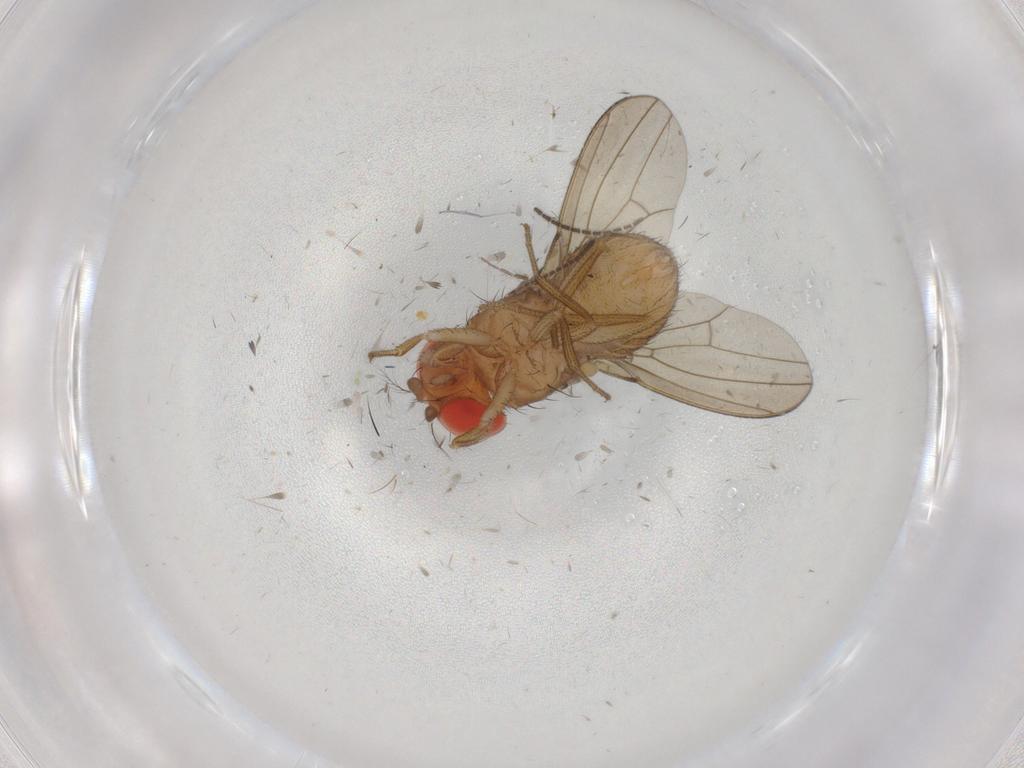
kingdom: Animalia
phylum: Arthropoda
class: Insecta
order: Diptera
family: Drosophilidae
